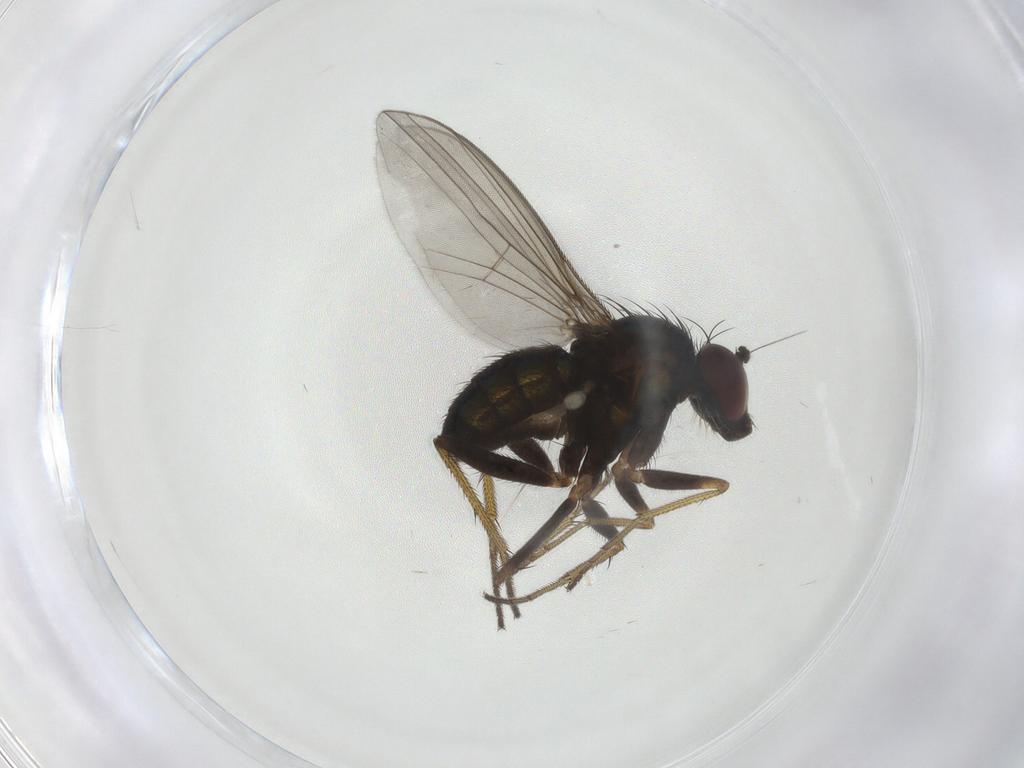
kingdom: Animalia
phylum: Arthropoda
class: Insecta
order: Diptera
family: Dolichopodidae
